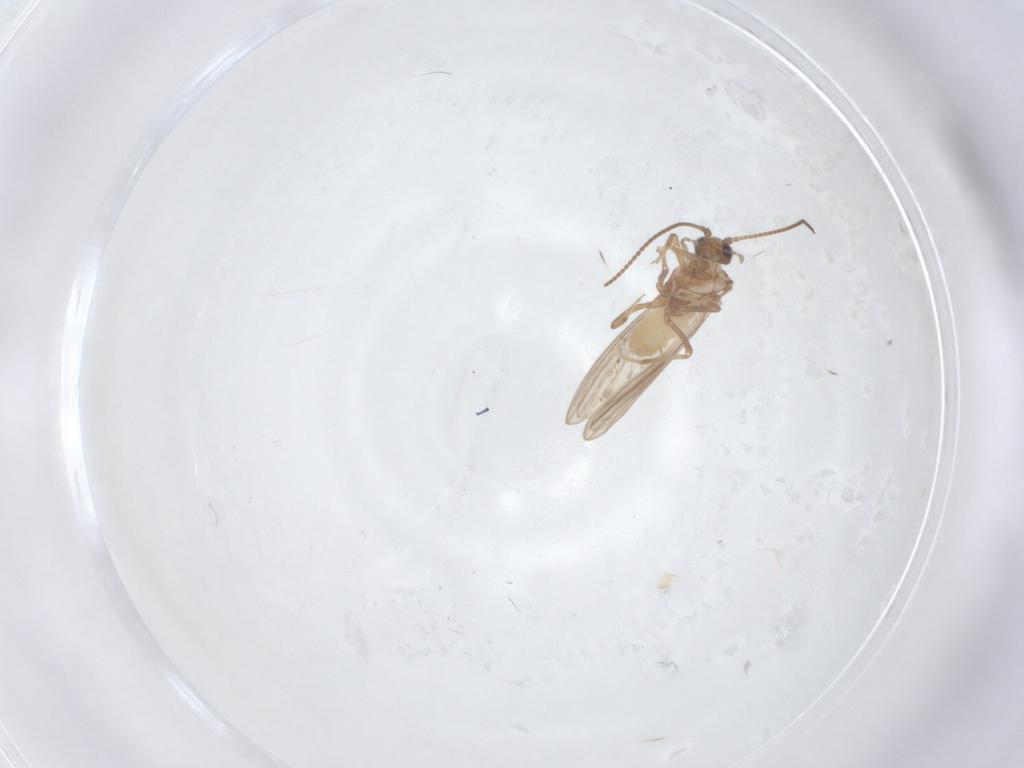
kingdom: Animalia
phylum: Arthropoda
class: Insecta
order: Neuroptera
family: Coniopterygidae
